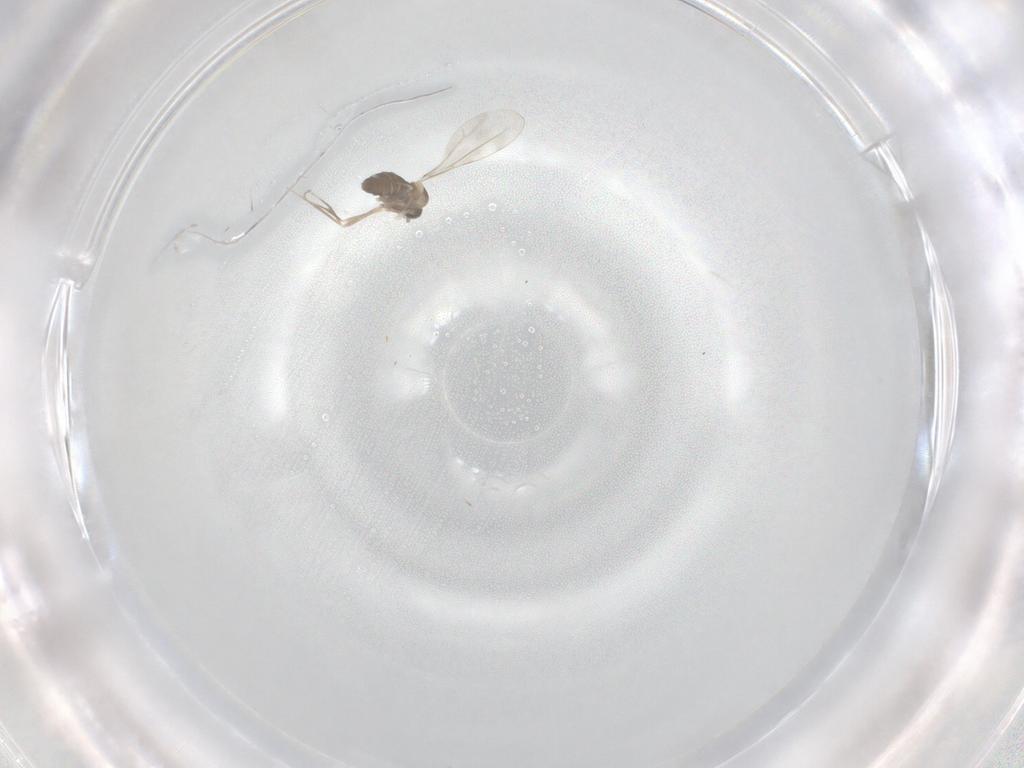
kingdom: Animalia
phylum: Arthropoda
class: Insecta
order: Diptera
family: Cecidomyiidae
